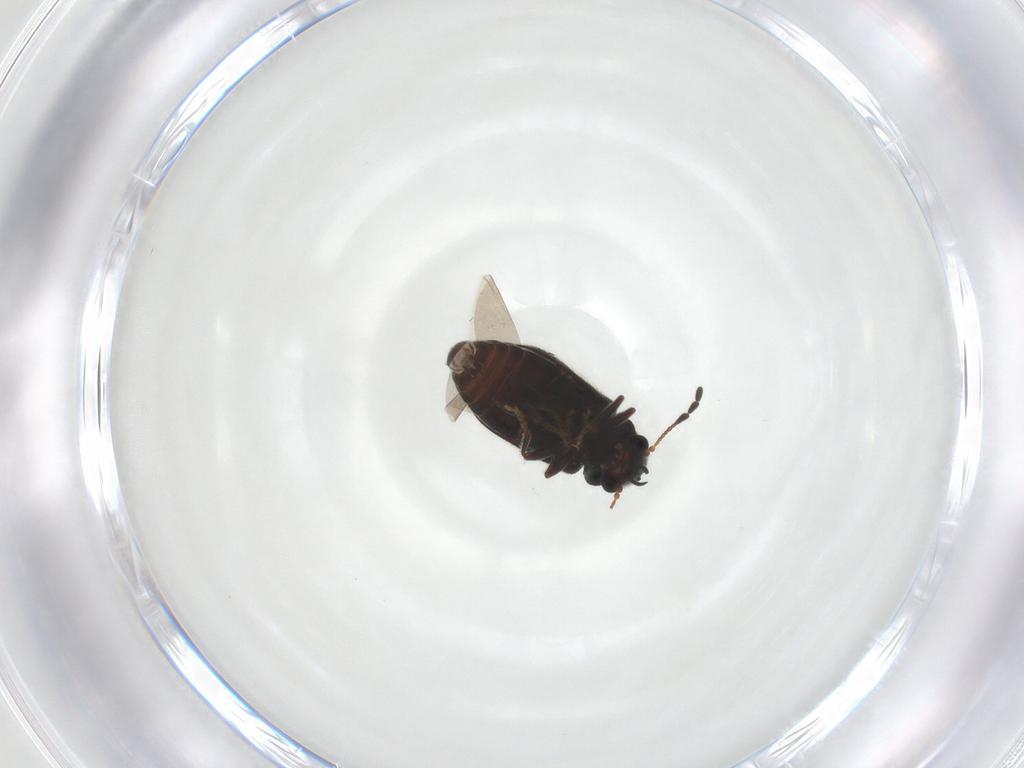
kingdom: Animalia
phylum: Arthropoda
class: Insecta
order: Coleoptera
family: Ptinidae
